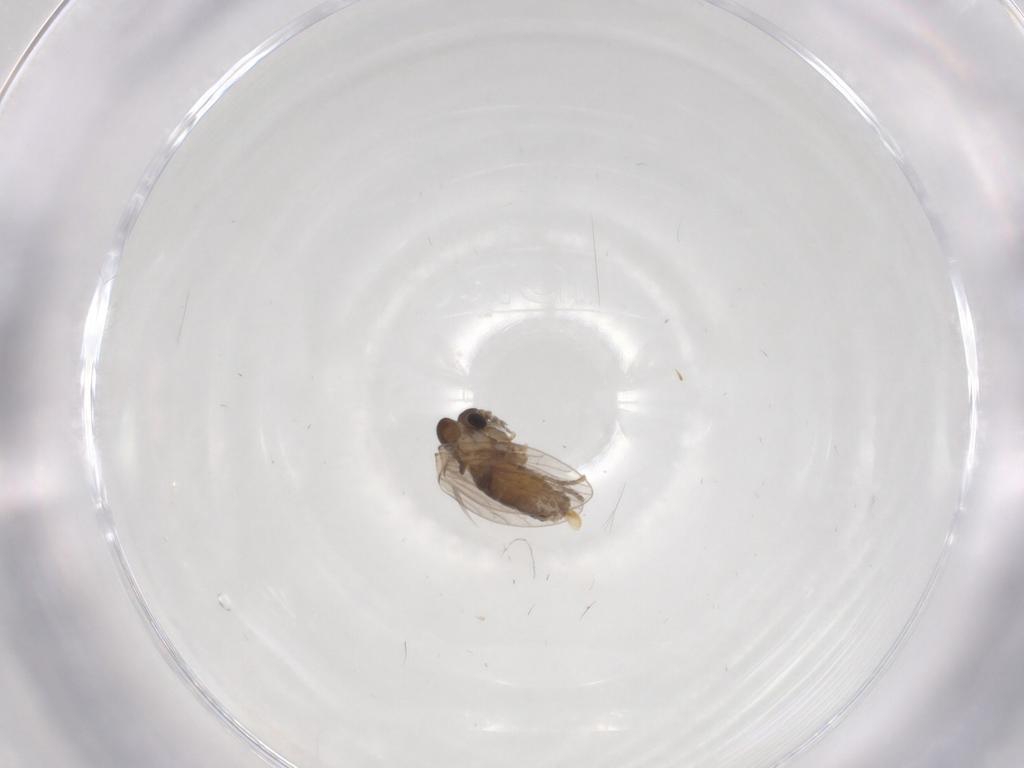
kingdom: Animalia
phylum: Arthropoda
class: Insecta
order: Diptera
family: Psychodidae
